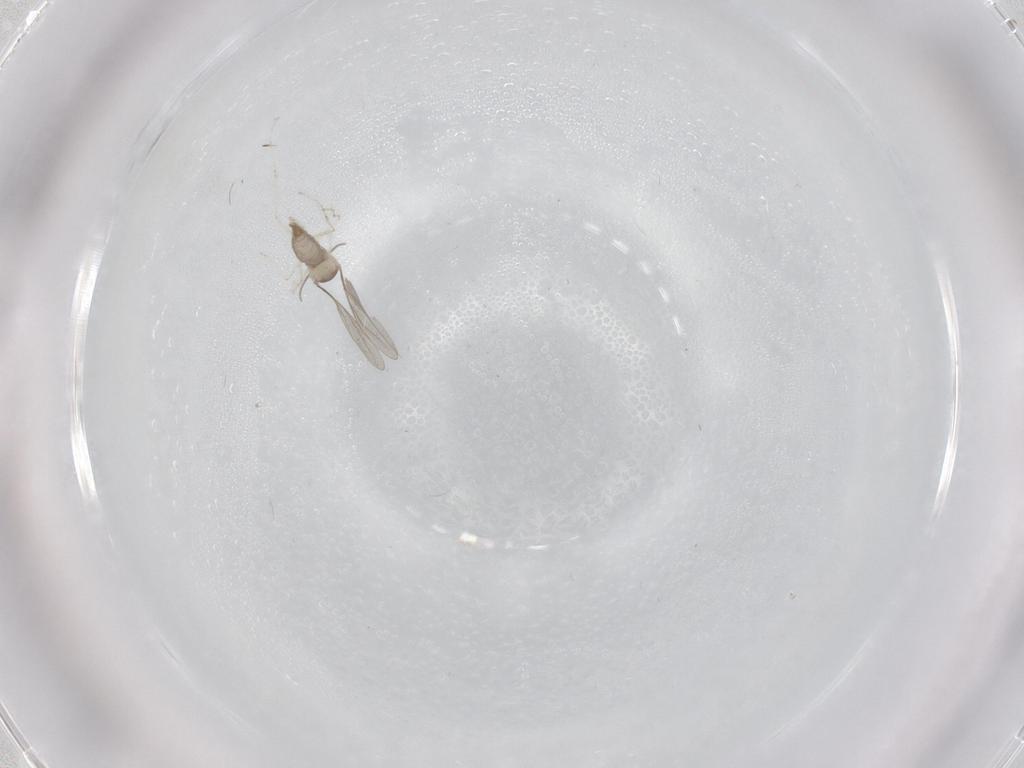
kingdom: Animalia
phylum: Arthropoda
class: Insecta
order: Diptera
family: Cecidomyiidae
